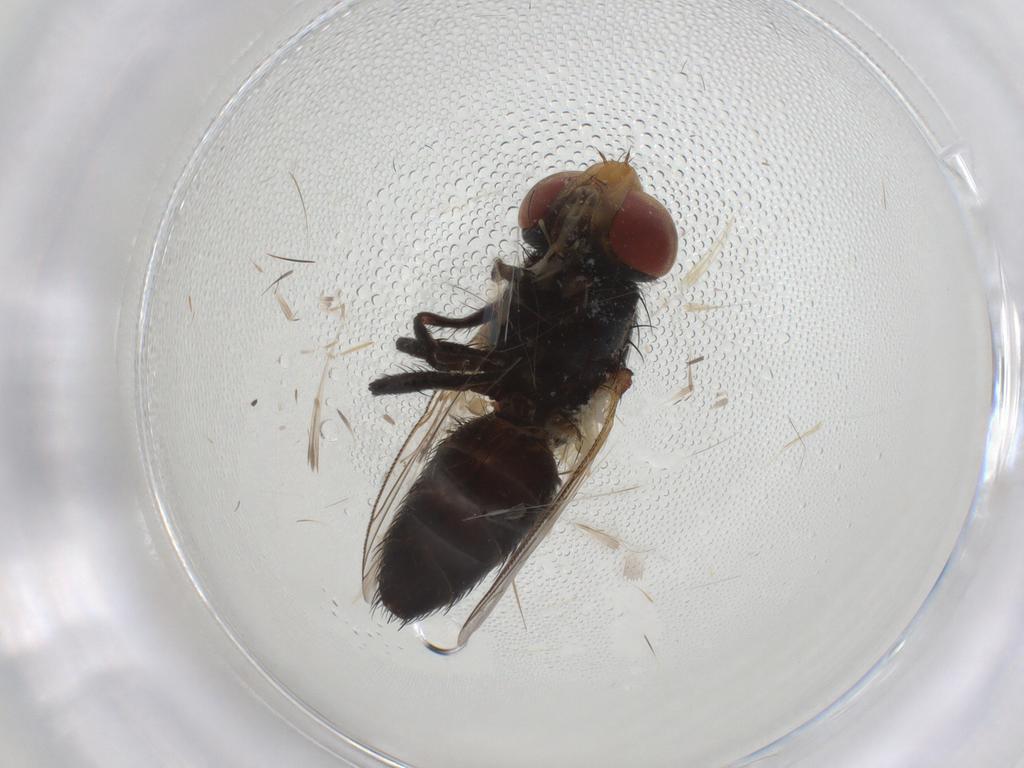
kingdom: Animalia
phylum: Arthropoda
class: Insecta
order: Diptera
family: Sarcophagidae
